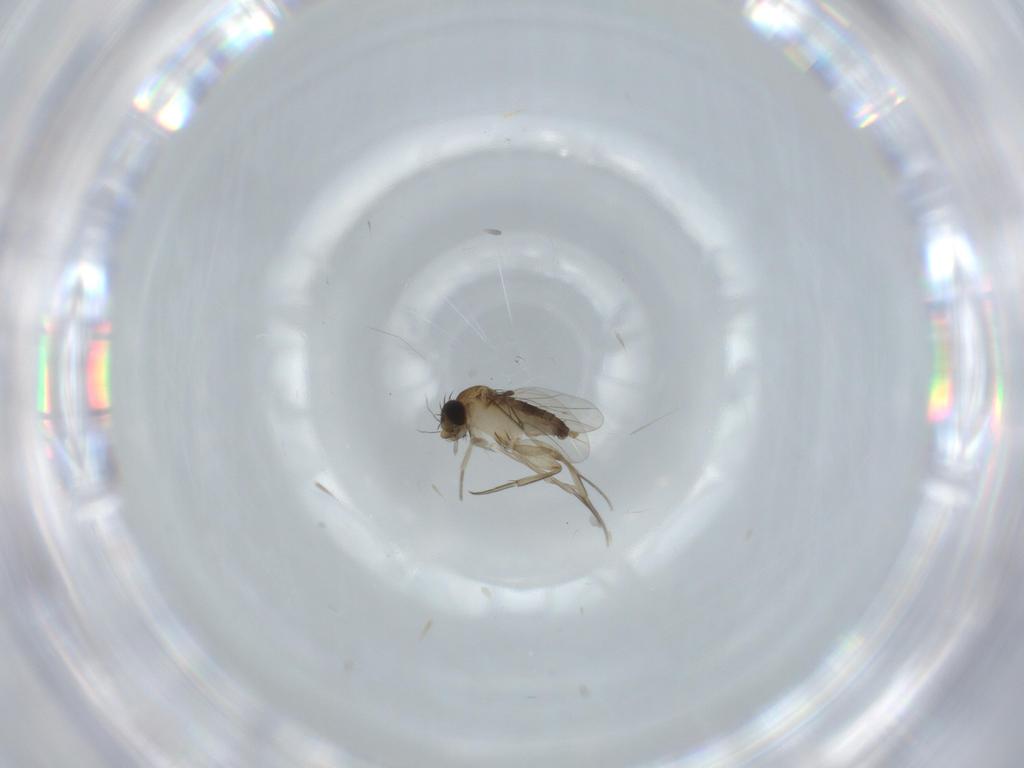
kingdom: Animalia
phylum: Arthropoda
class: Insecta
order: Diptera
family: Phoridae
